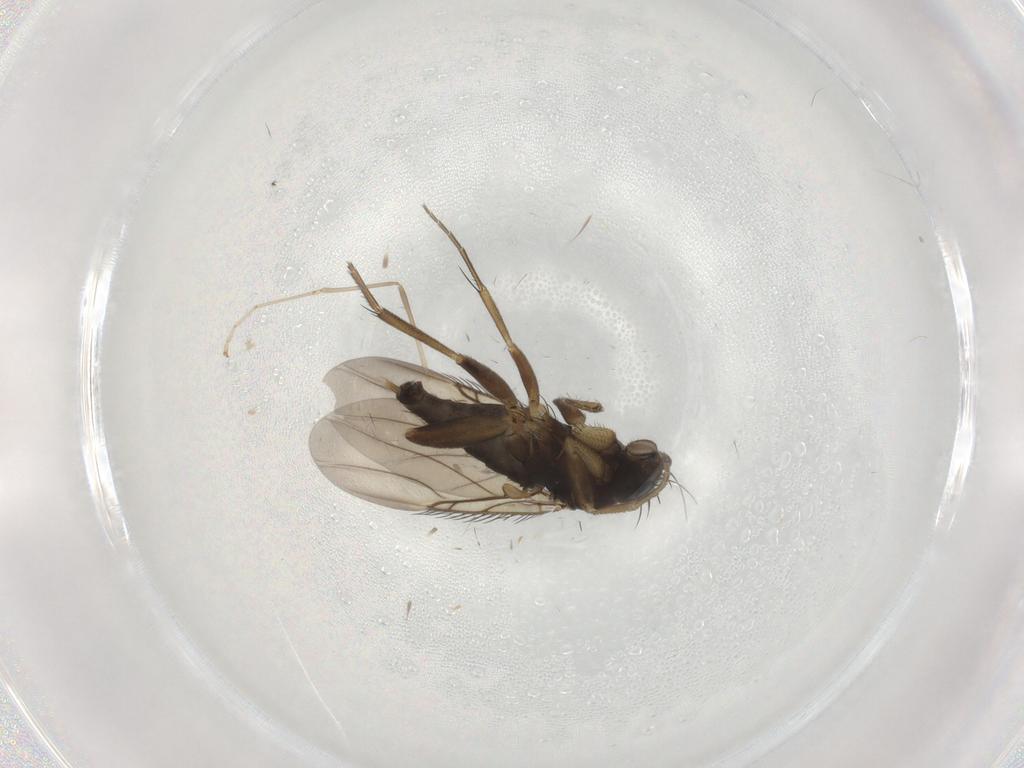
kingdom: Animalia
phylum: Arthropoda
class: Insecta
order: Diptera
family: Phoridae
